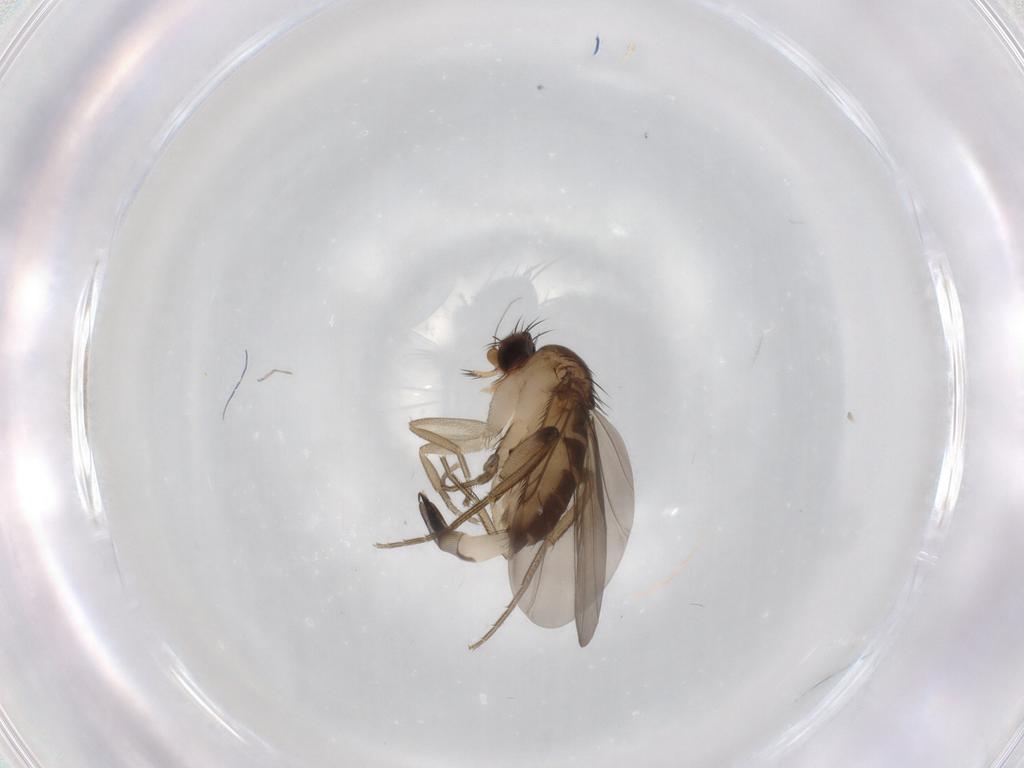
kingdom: Animalia
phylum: Arthropoda
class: Insecta
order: Diptera
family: Phoridae
